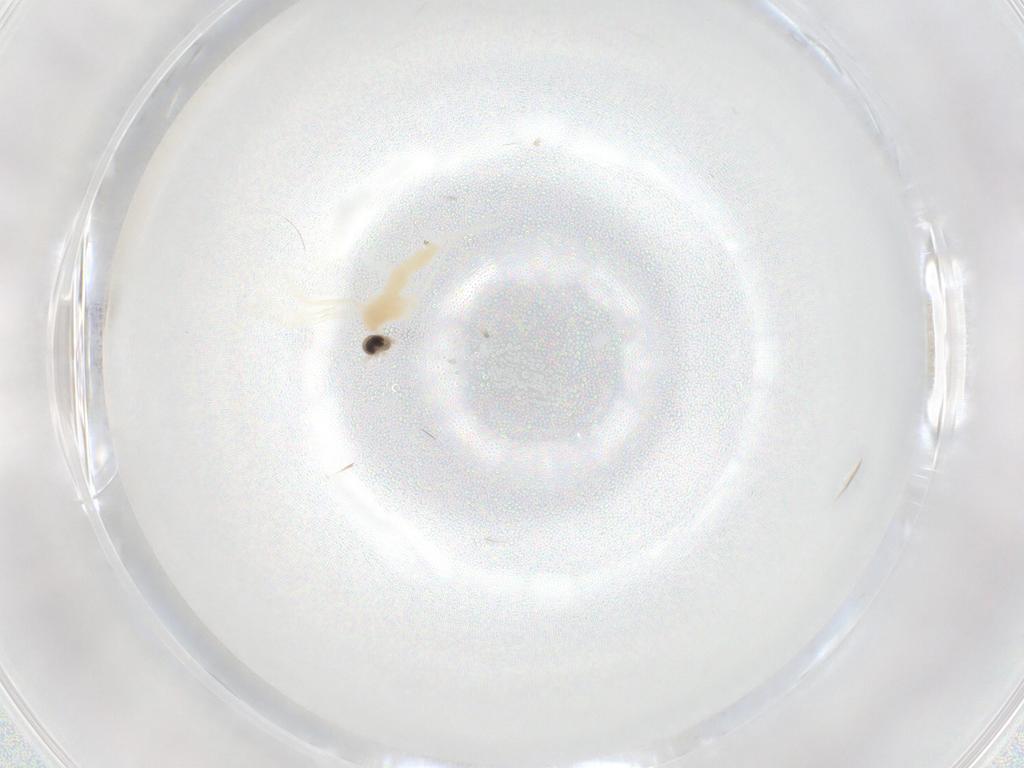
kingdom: Animalia
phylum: Arthropoda
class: Insecta
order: Diptera
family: Cecidomyiidae
